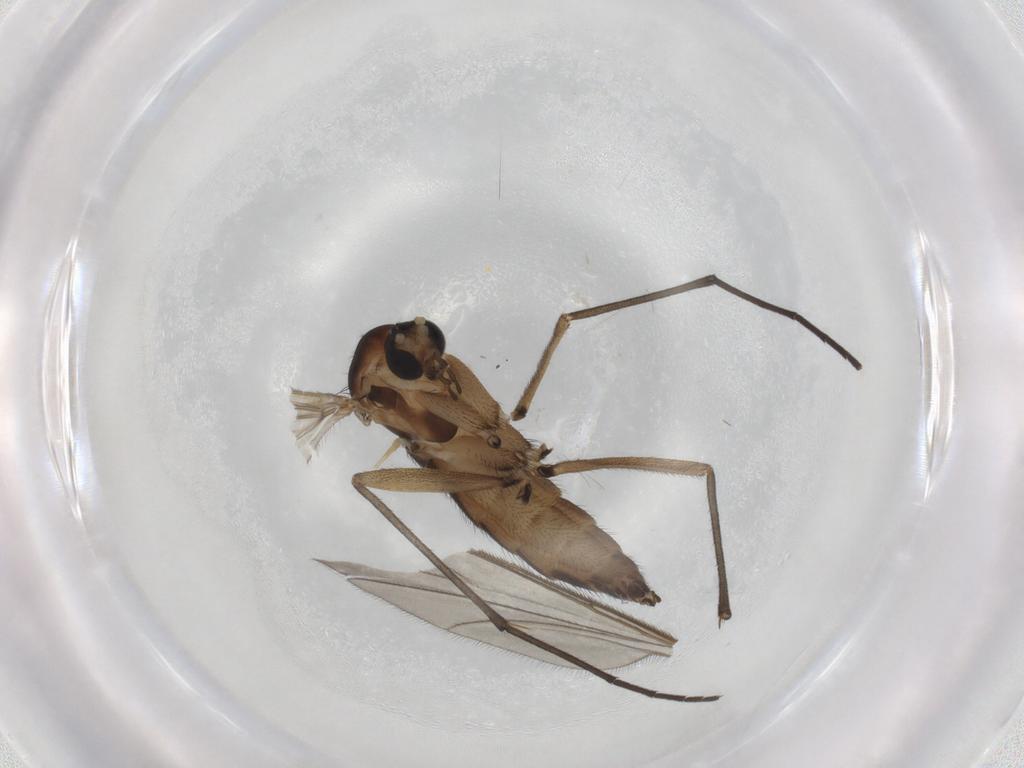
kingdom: Animalia
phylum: Arthropoda
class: Insecta
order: Diptera
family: Sciaridae
